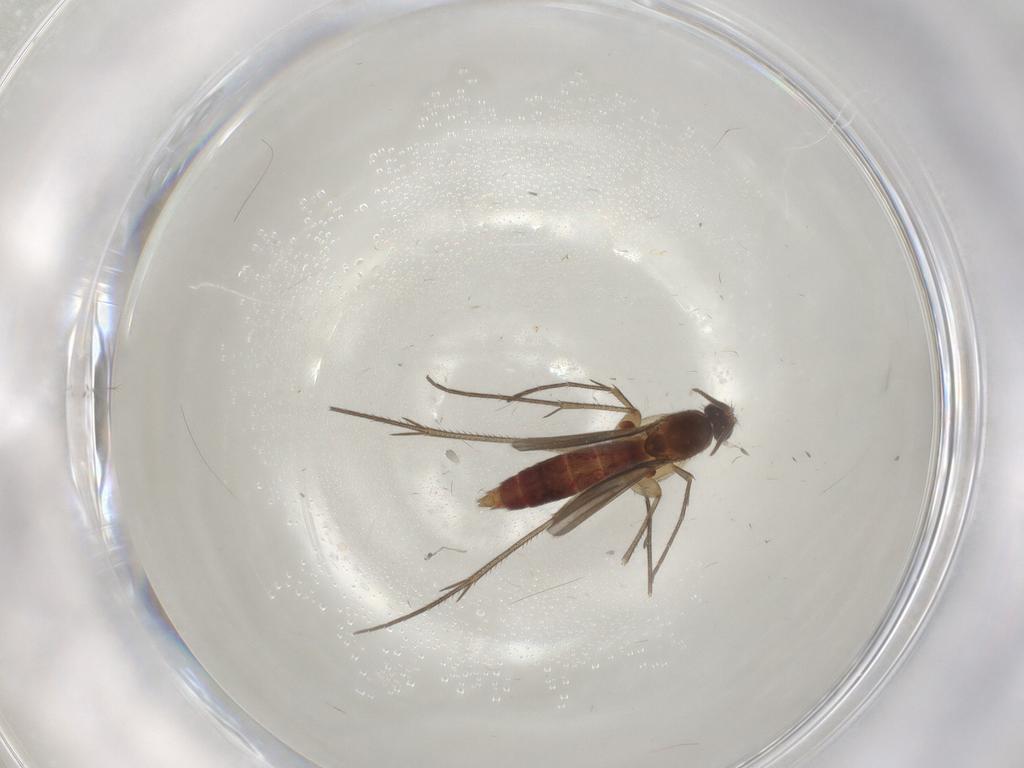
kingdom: Animalia
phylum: Arthropoda
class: Insecta
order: Diptera
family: Mycetophilidae
